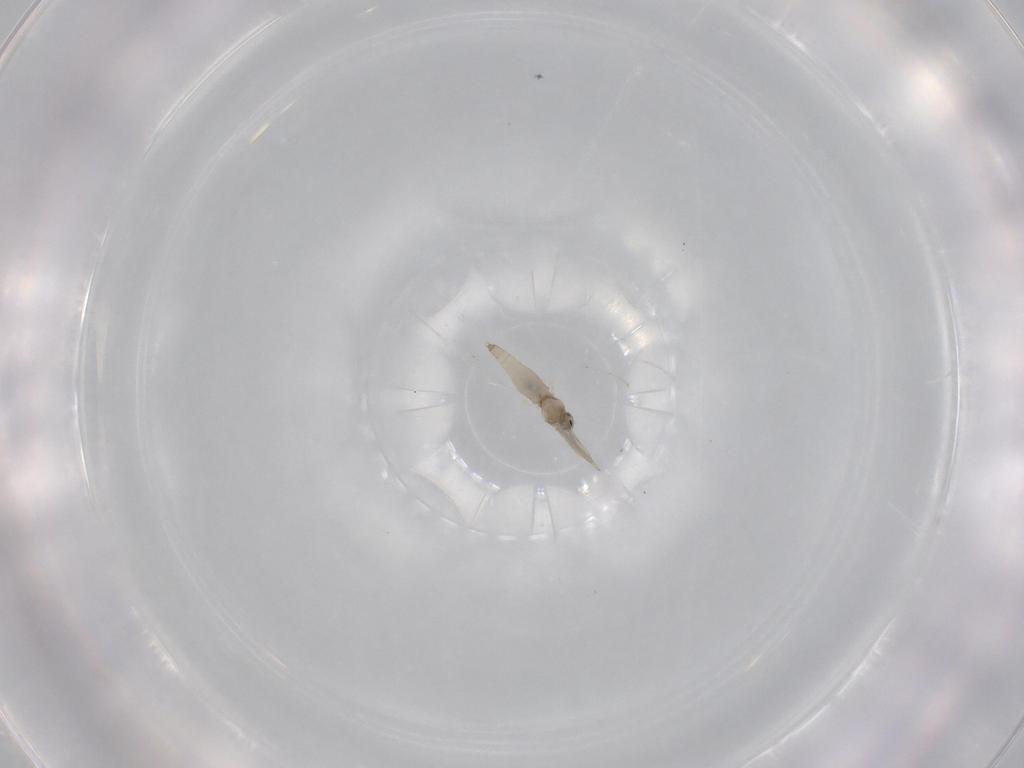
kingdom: Animalia
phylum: Arthropoda
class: Insecta
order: Diptera
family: Cecidomyiidae
